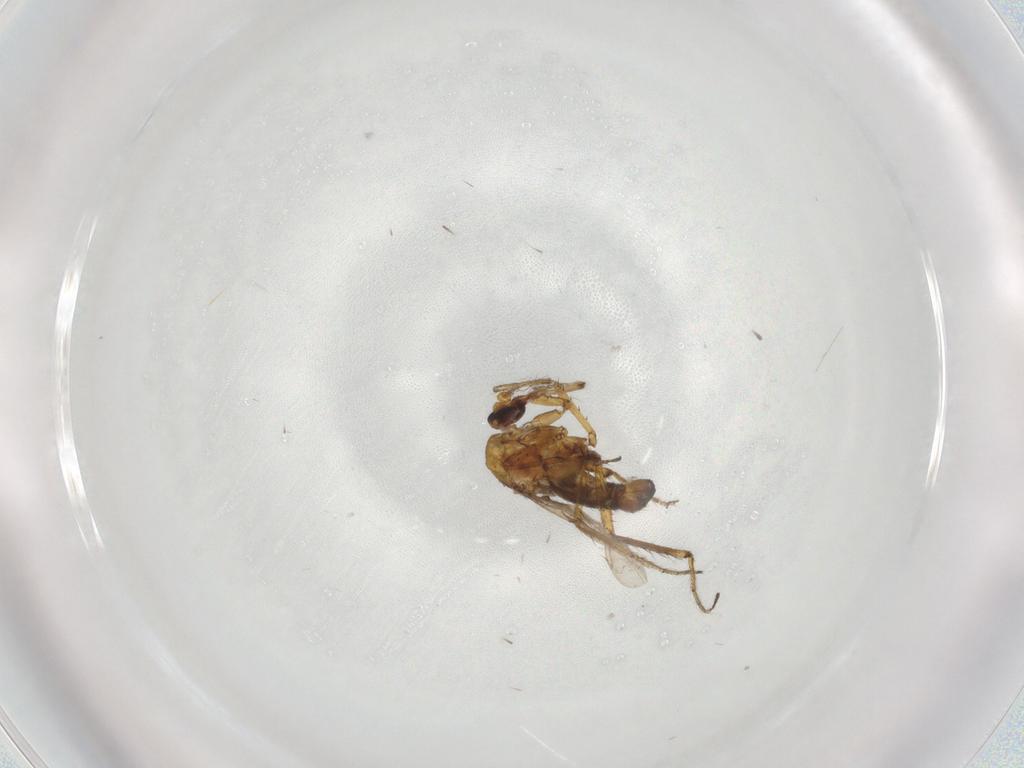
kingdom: Animalia
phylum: Arthropoda
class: Insecta
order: Diptera
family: Ceratopogonidae
